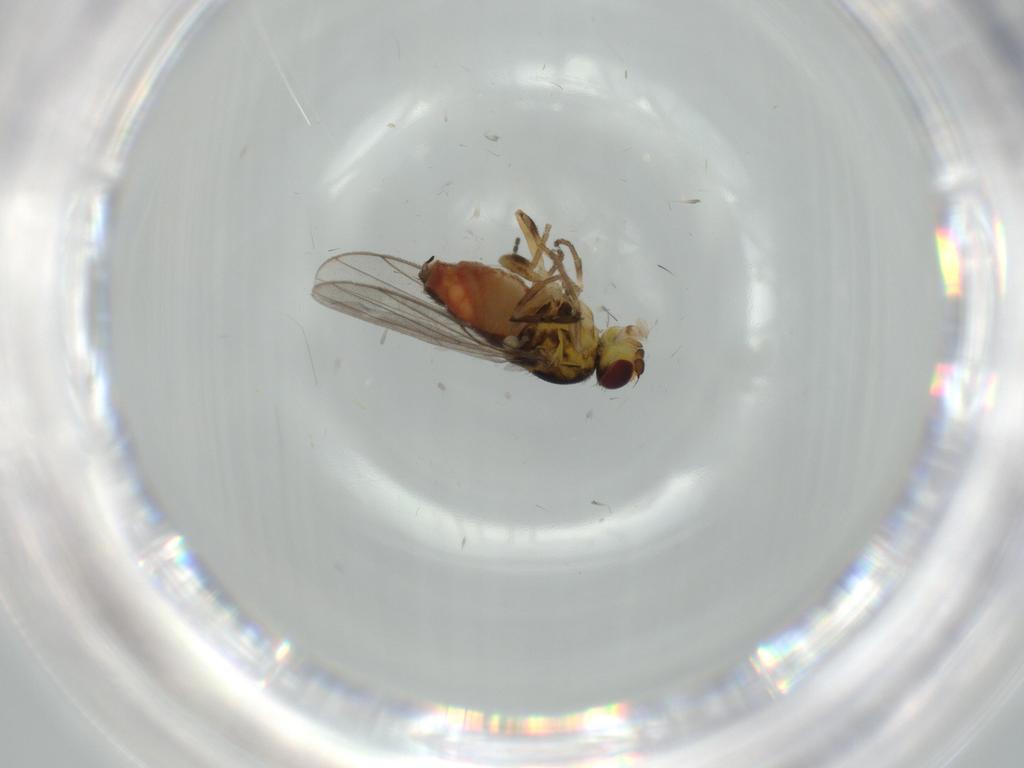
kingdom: Animalia
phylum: Arthropoda
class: Insecta
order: Diptera
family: Chloropidae
